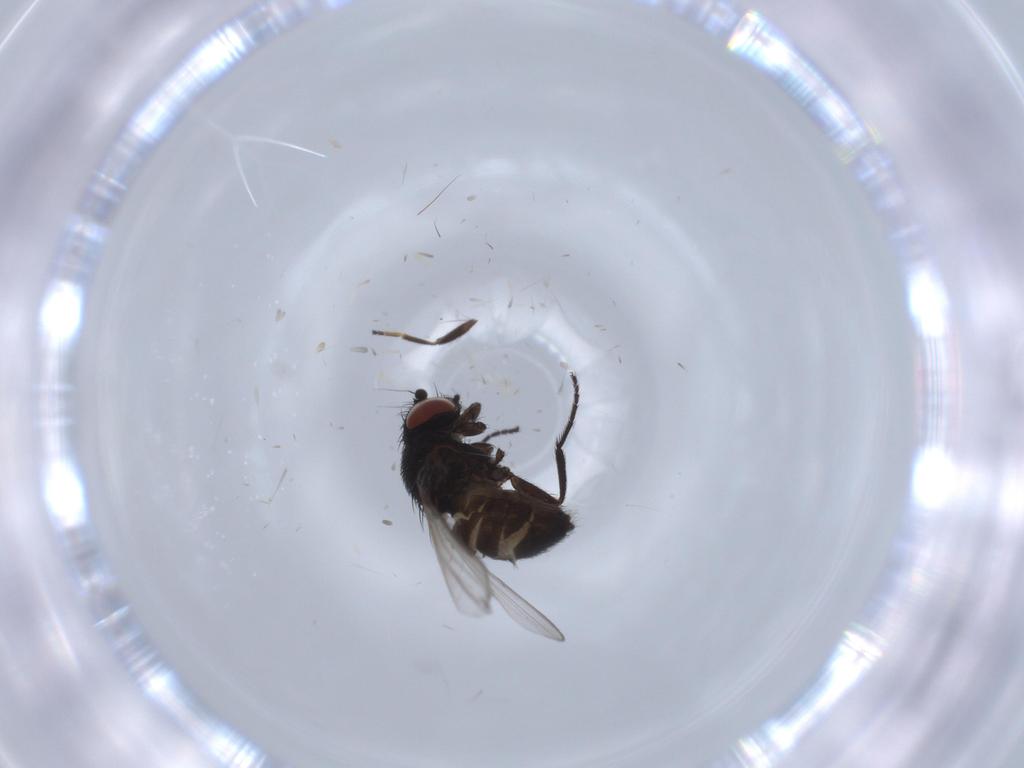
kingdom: Animalia
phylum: Arthropoda
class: Insecta
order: Diptera
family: Milichiidae
